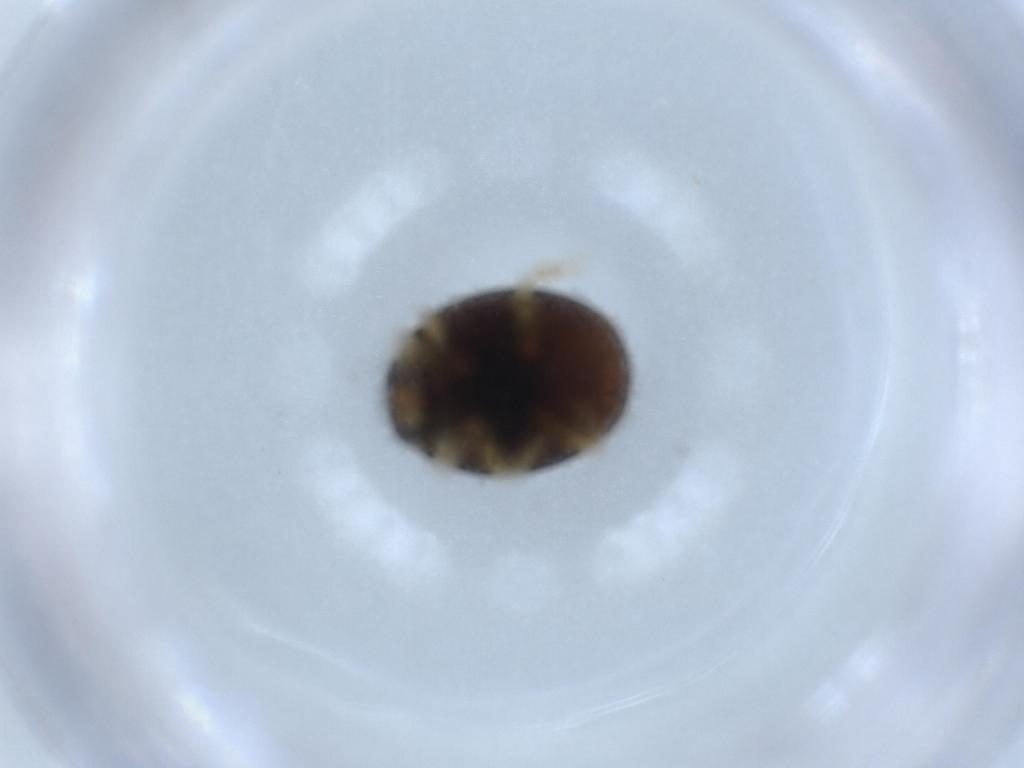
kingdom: Animalia
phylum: Arthropoda
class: Insecta
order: Coleoptera
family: Coccinellidae
